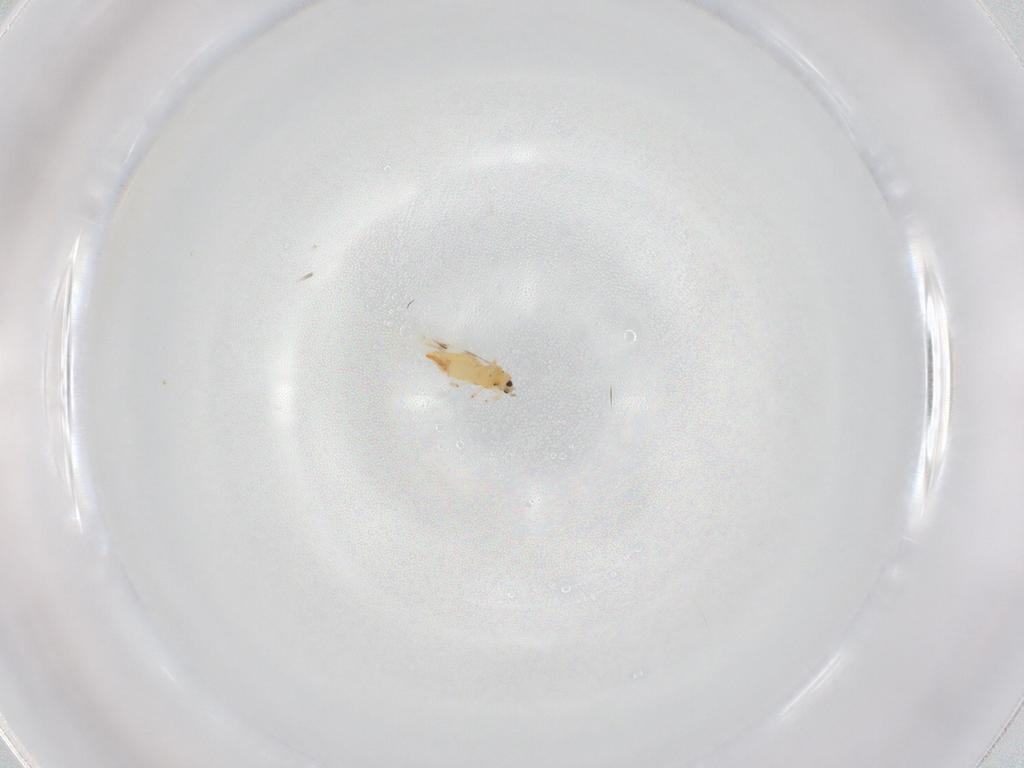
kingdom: Animalia
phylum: Arthropoda
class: Insecta
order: Thysanoptera
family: Thripidae
